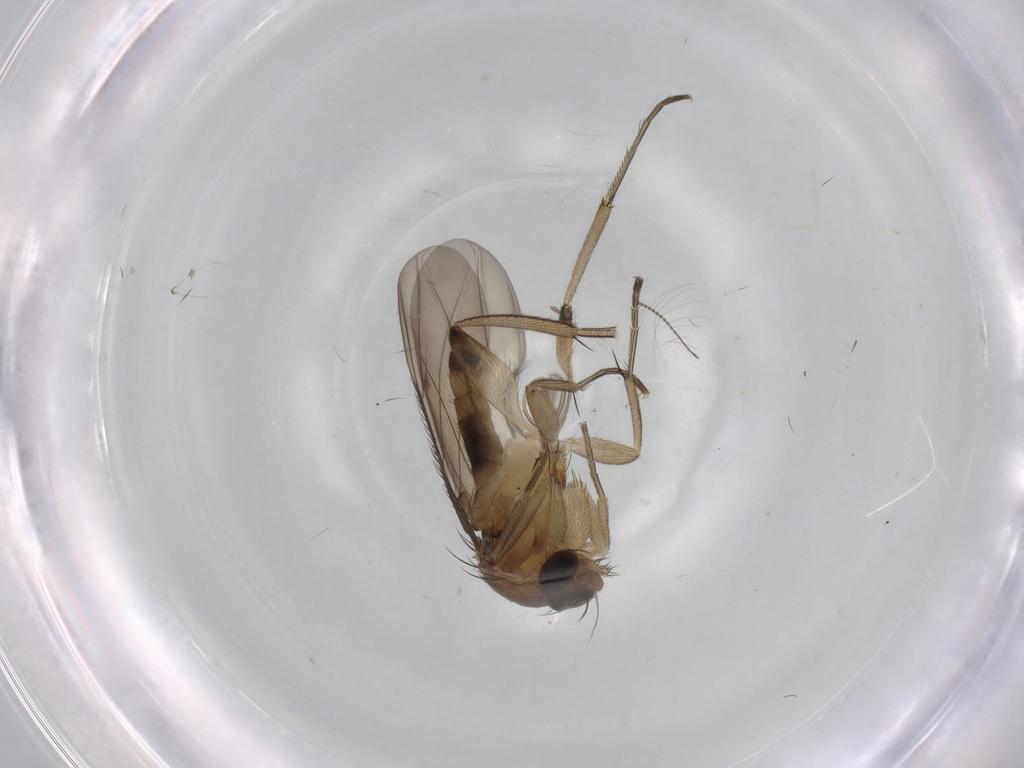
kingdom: Animalia
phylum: Arthropoda
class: Insecta
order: Diptera
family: Phoridae
